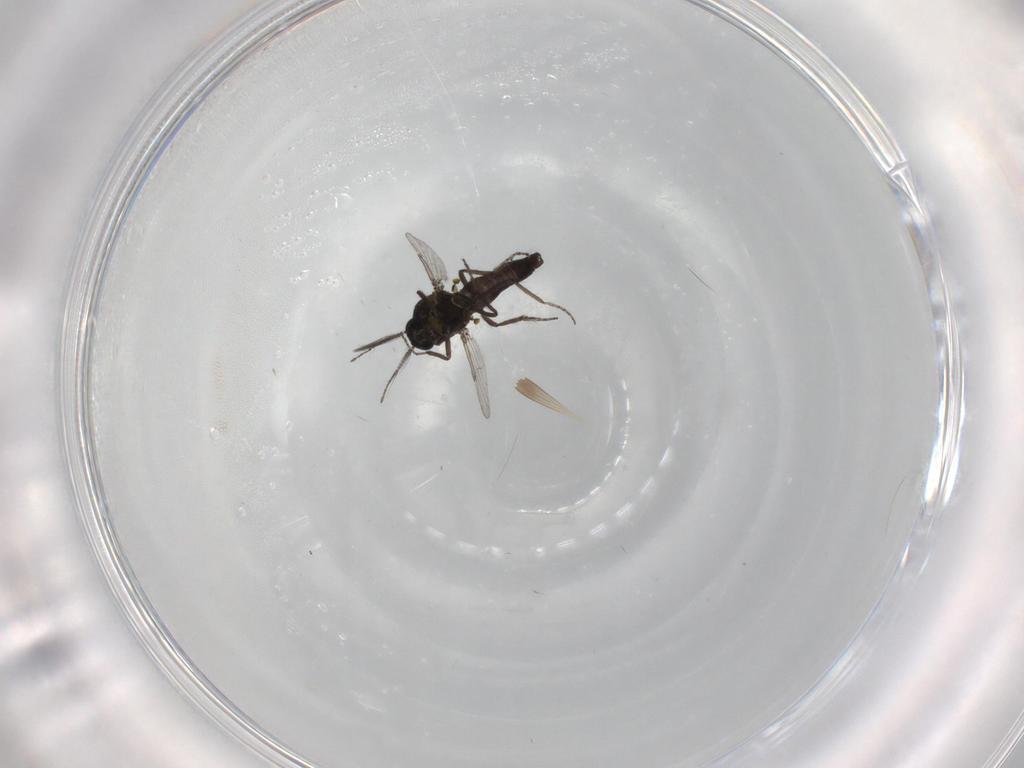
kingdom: Animalia
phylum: Arthropoda
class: Insecta
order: Diptera
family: Ceratopogonidae
